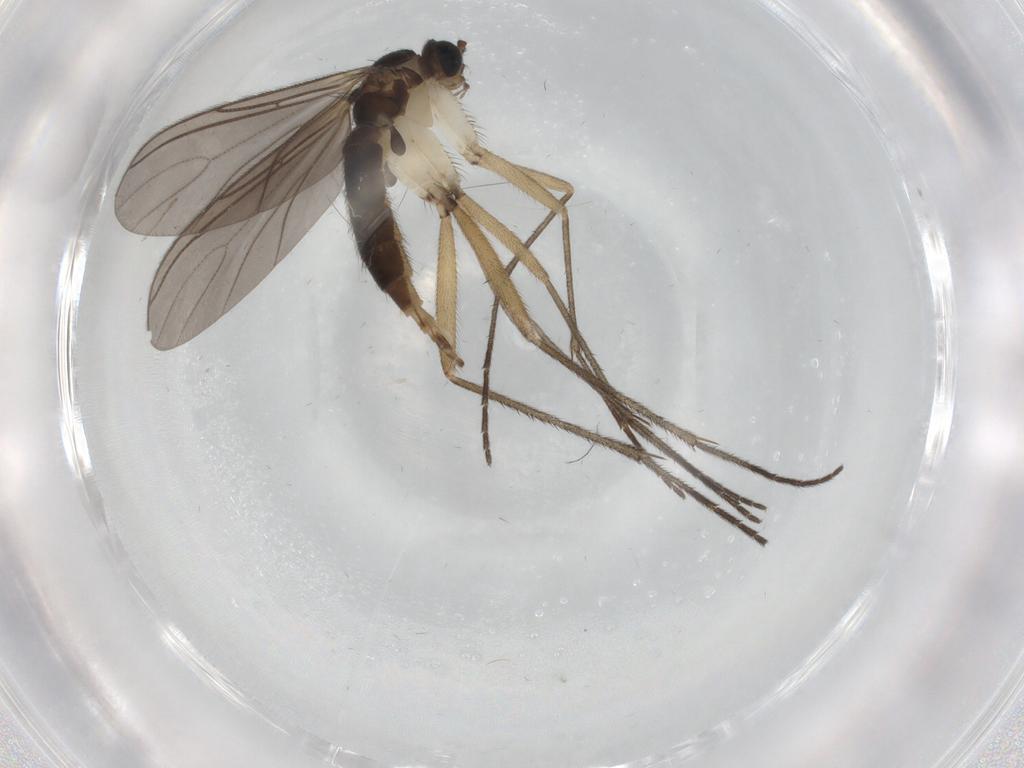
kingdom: Animalia
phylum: Arthropoda
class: Insecta
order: Diptera
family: Sciaridae
